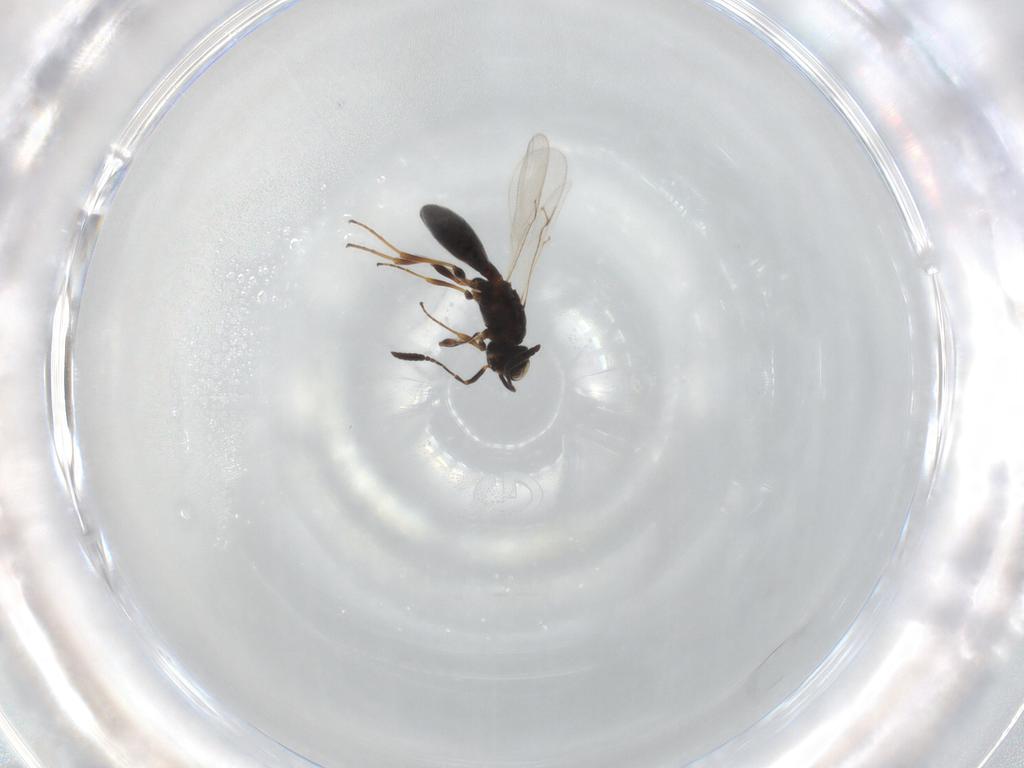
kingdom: Animalia
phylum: Arthropoda
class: Insecta
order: Hymenoptera
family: Scelionidae
